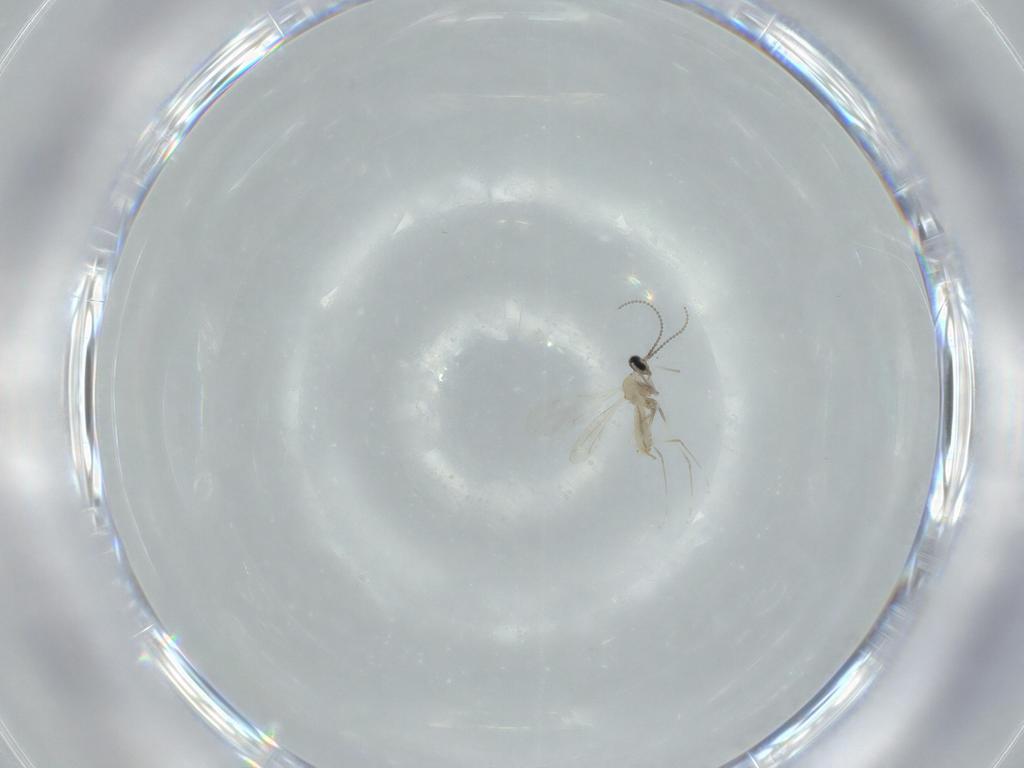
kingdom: Animalia
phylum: Arthropoda
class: Insecta
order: Diptera
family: Cecidomyiidae
